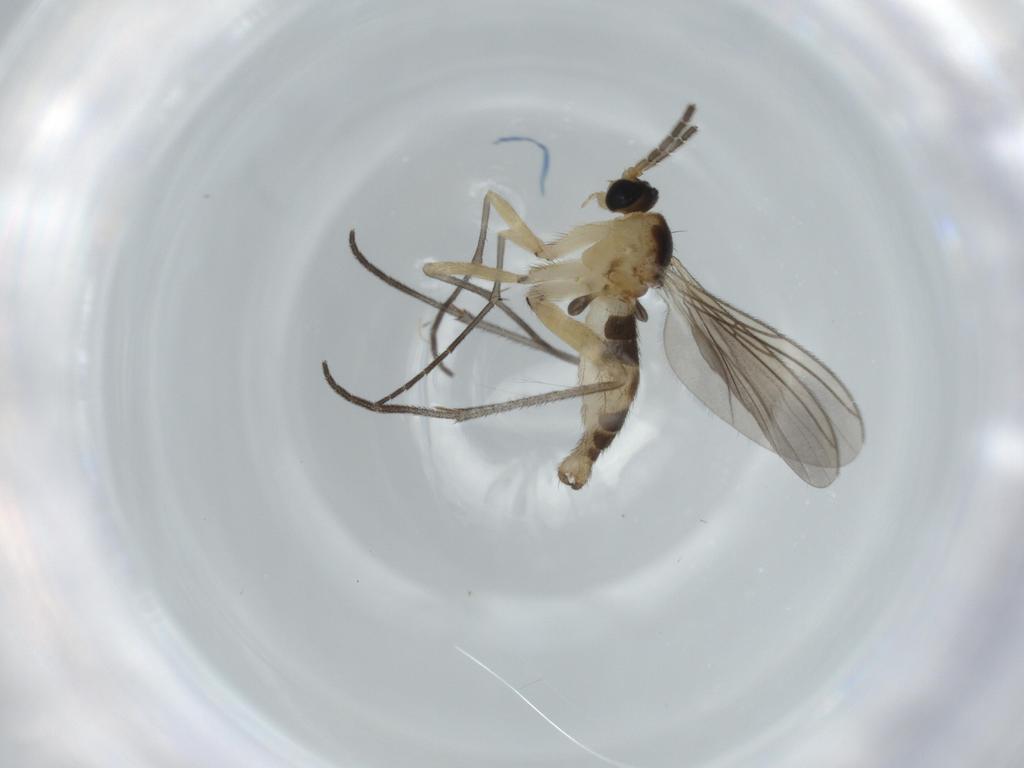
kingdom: Animalia
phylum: Arthropoda
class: Insecta
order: Diptera
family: Sciaridae
